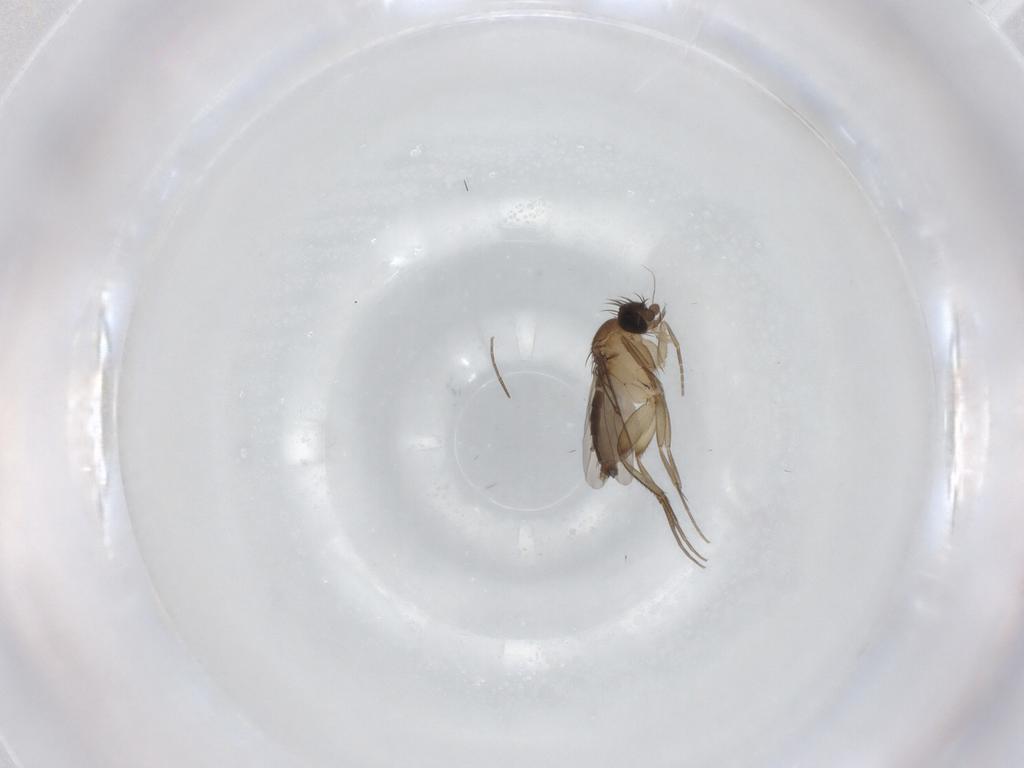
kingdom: Animalia
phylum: Arthropoda
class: Insecta
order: Diptera
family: Phoridae
